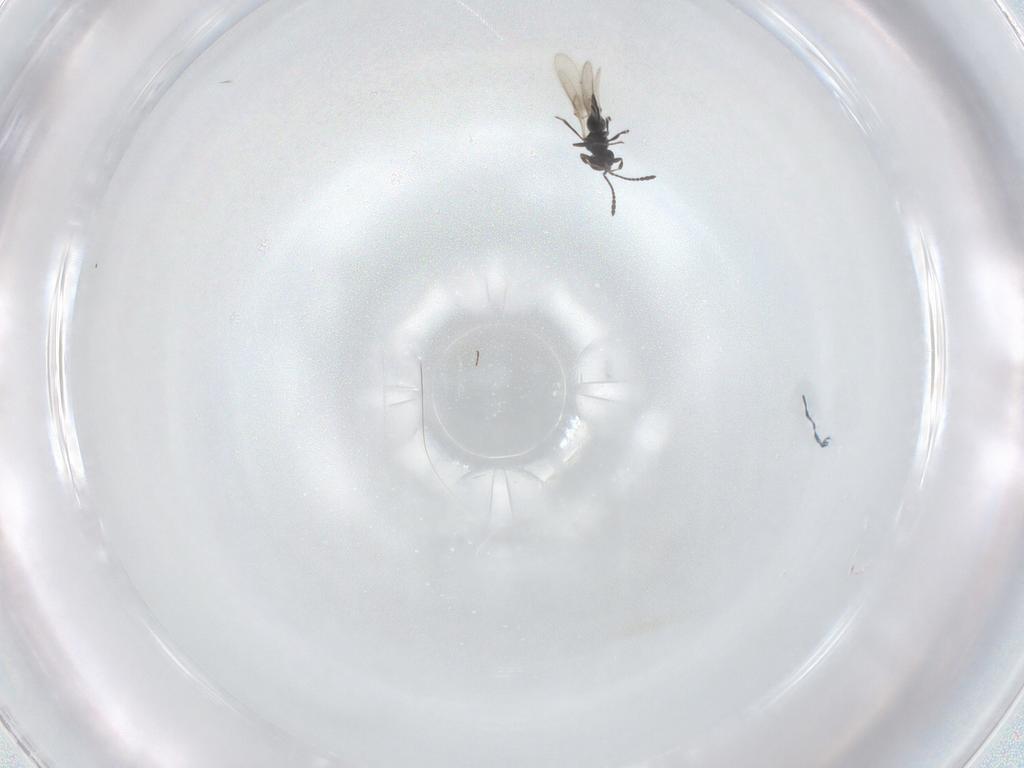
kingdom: Animalia
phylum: Arthropoda
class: Insecta
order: Hymenoptera
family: Scelionidae
